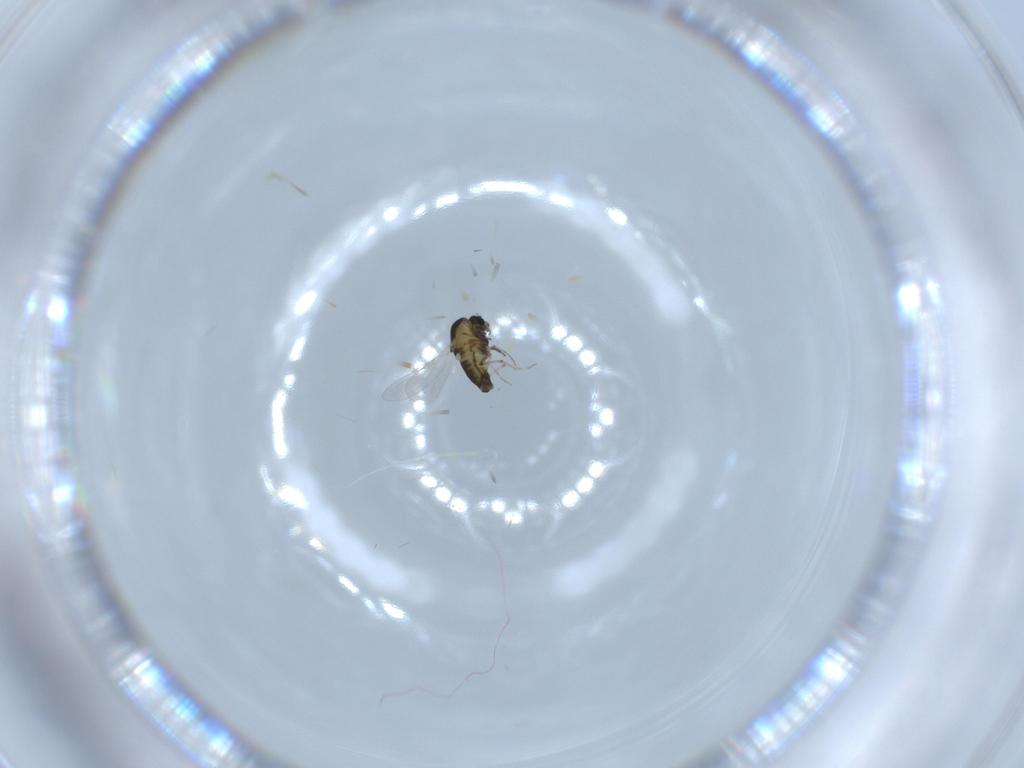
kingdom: Animalia
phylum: Arthropoda
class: Insecta
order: Diptera
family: Chironomidae
